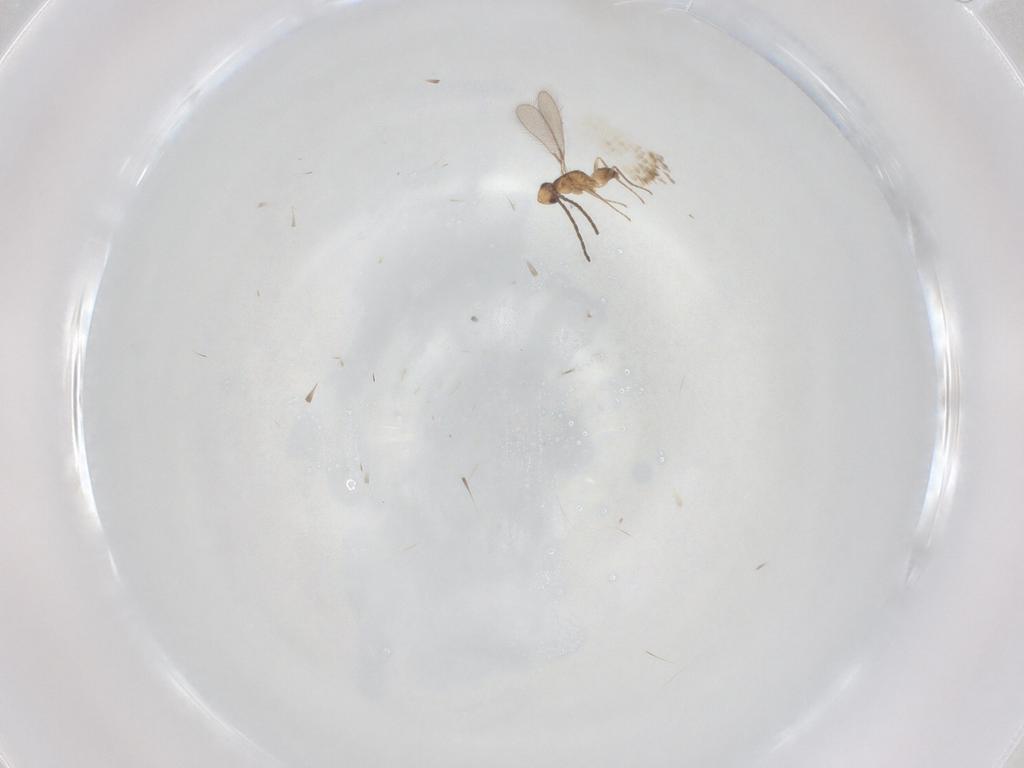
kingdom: Animalia
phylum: Arthropoda
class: Insecta
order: Hymenoptera
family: Mymaridae
